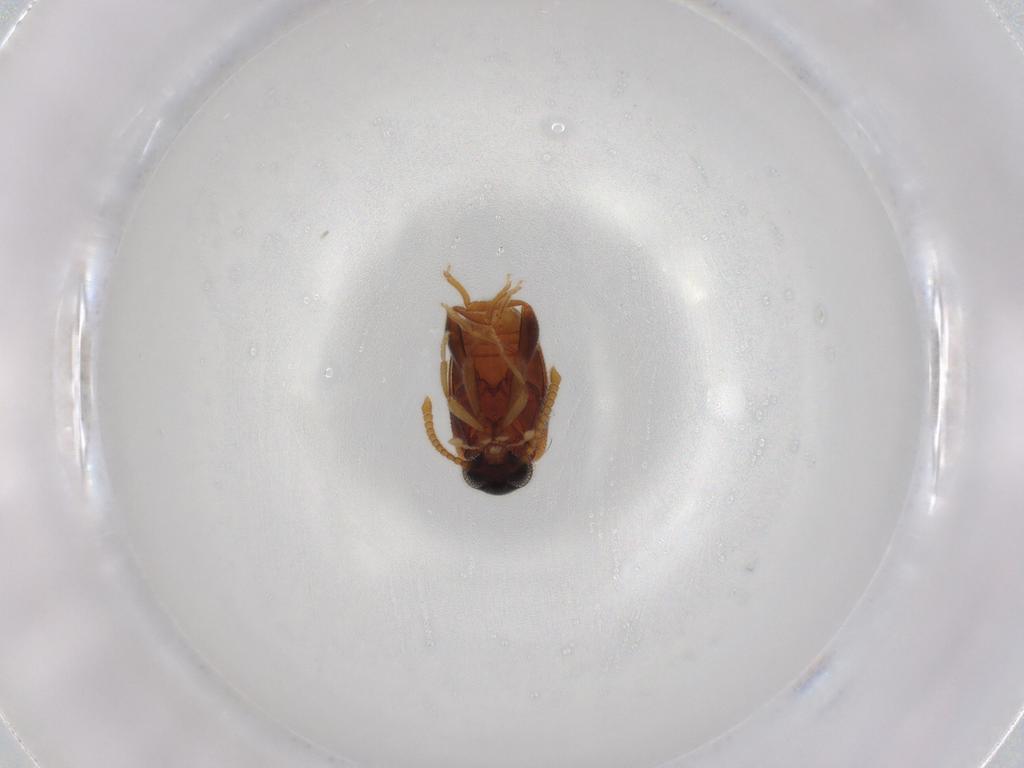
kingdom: Animalia
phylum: Arthropoda
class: Insecta
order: Coleoptera
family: Aderidae
